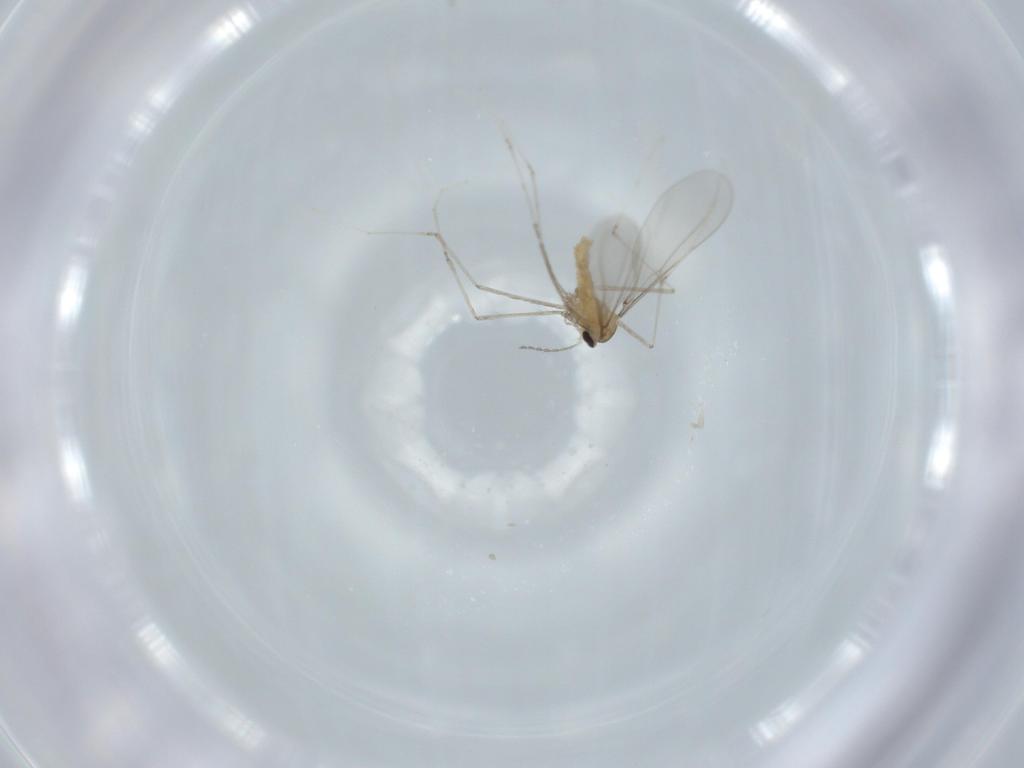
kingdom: Animalia
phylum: Arthropoda
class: Insecta
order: Diptera
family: Cecidomyiidae
